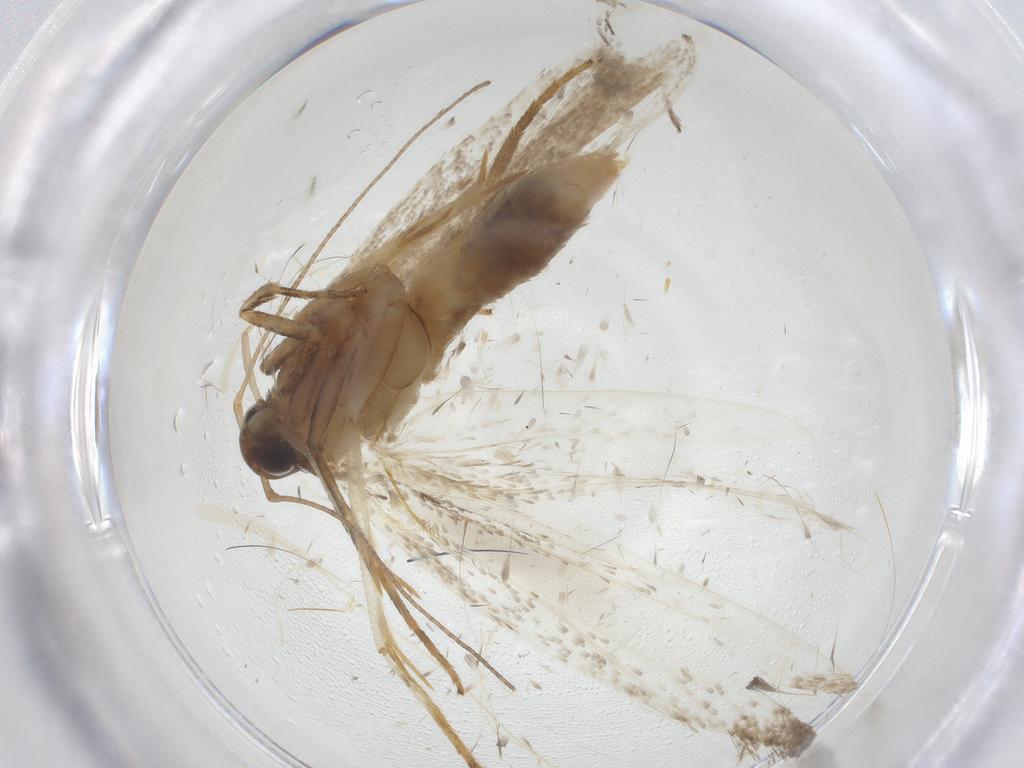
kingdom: Animalia
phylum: Arthropoda
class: Insecta
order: Lepidoptera
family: Gelechiidae
